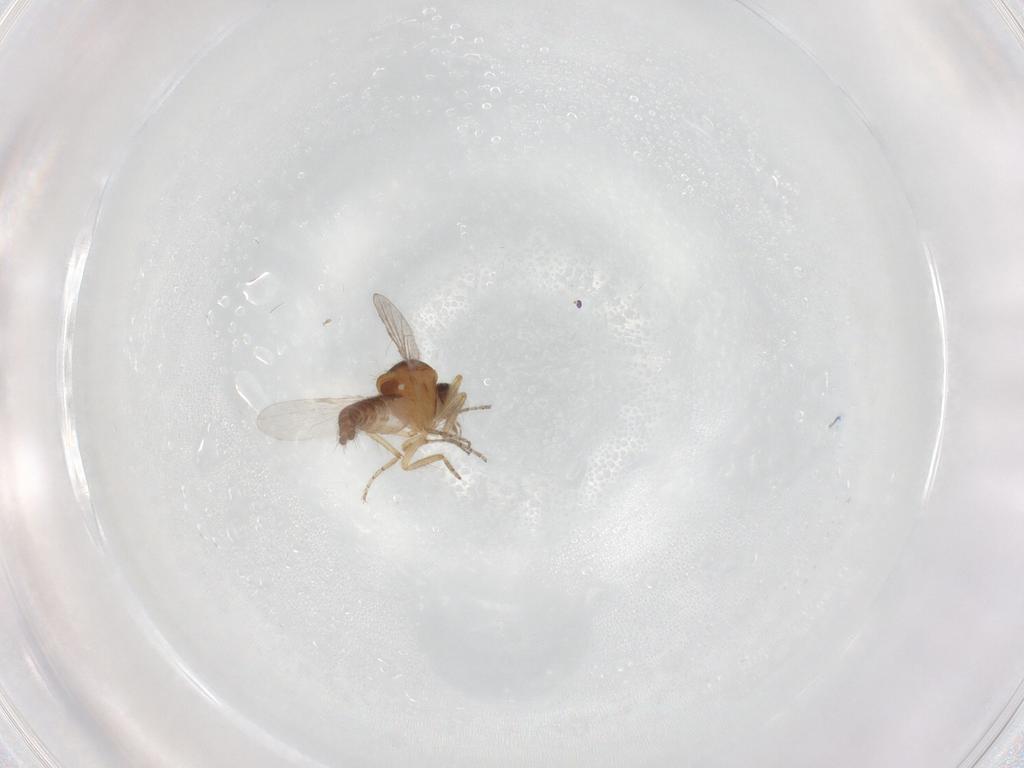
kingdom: Animalia
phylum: Arthropoda
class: Insecta
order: Diptera
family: Ceratopogonidae
